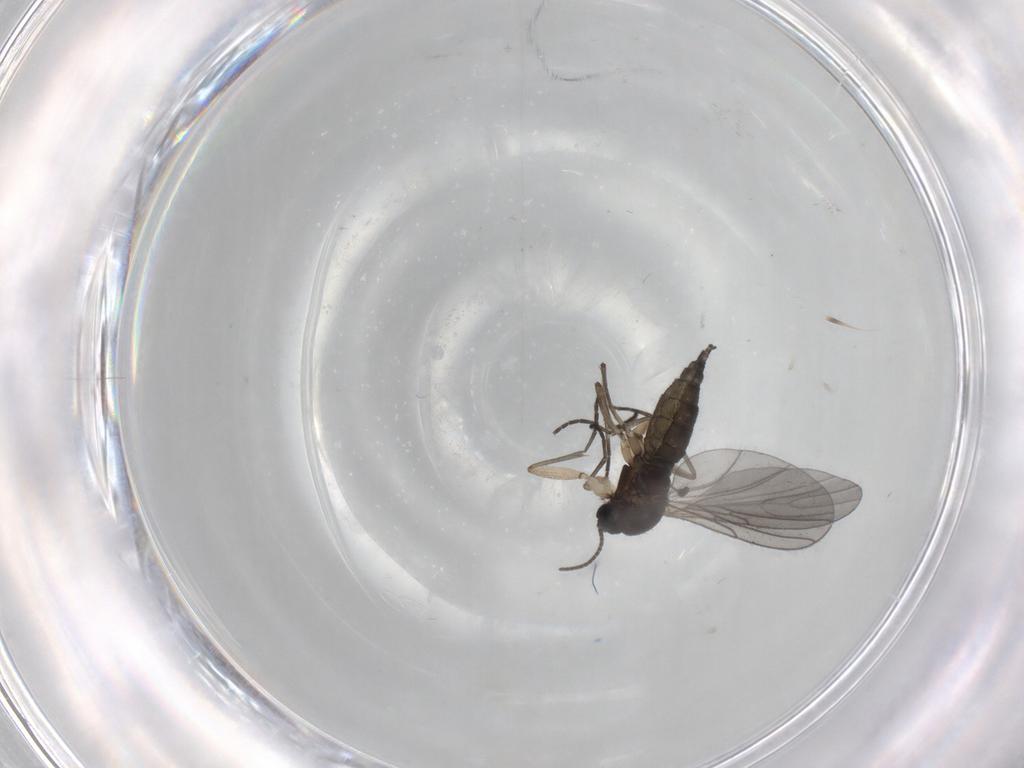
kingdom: Animalia
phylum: Arthropoda
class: Insecta
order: Diptera
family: Sciaridae
